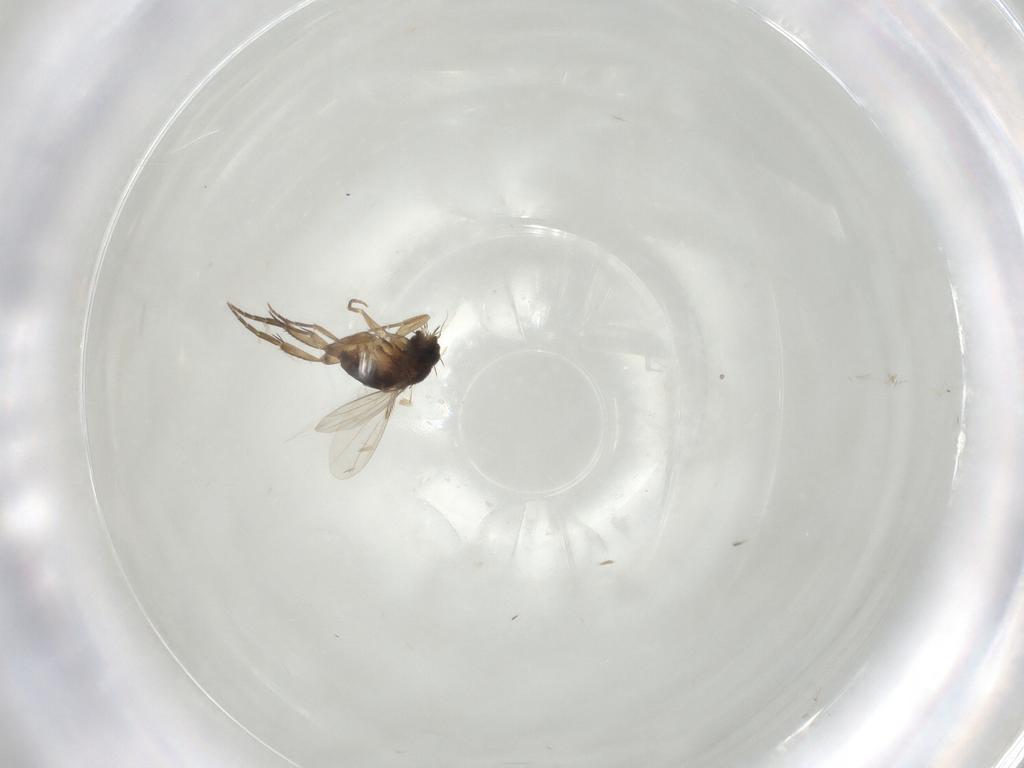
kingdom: Animalia
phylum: Arthropoda
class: Insecta
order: Diptera
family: Phoridae
